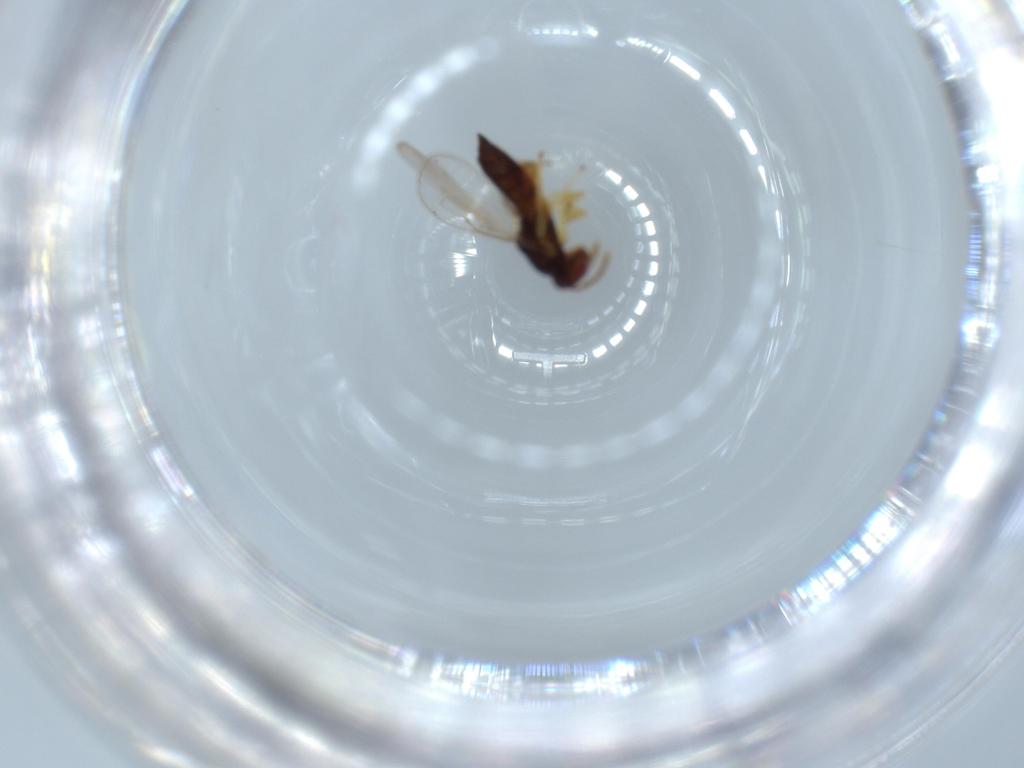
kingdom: Animalia
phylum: Arthropoda
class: Insecta
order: Hymenoptera
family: Eulophidae
